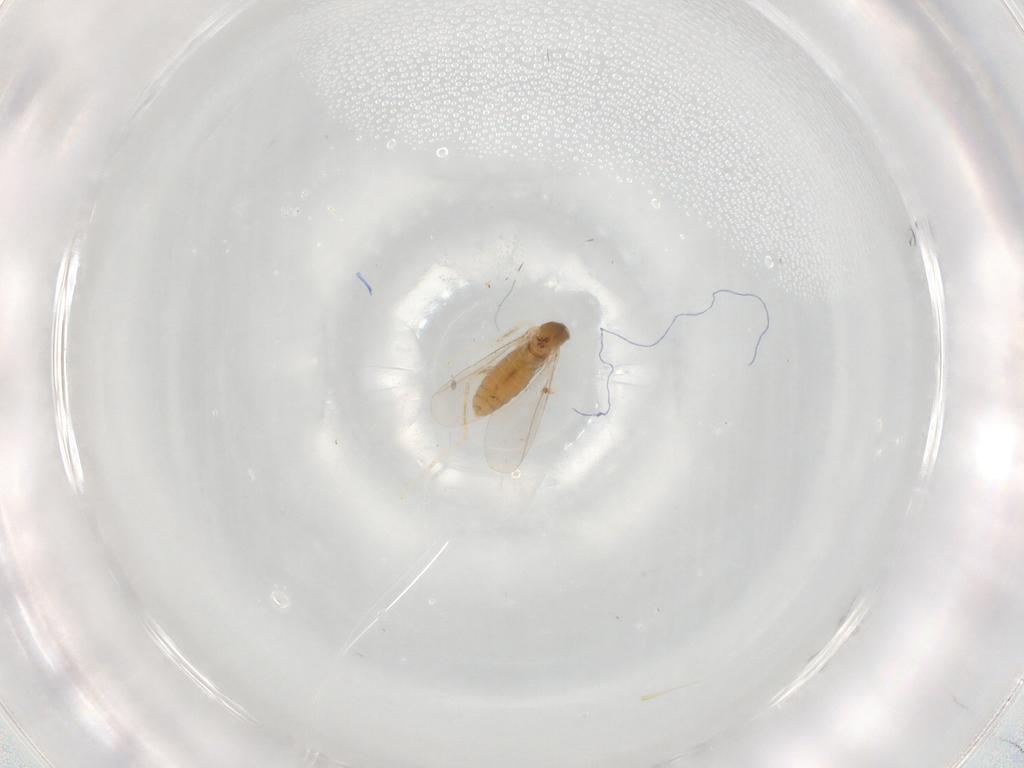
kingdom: Animalia
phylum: Arthropoda
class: Insecta
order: Diptera
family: Cecidomyiidae
